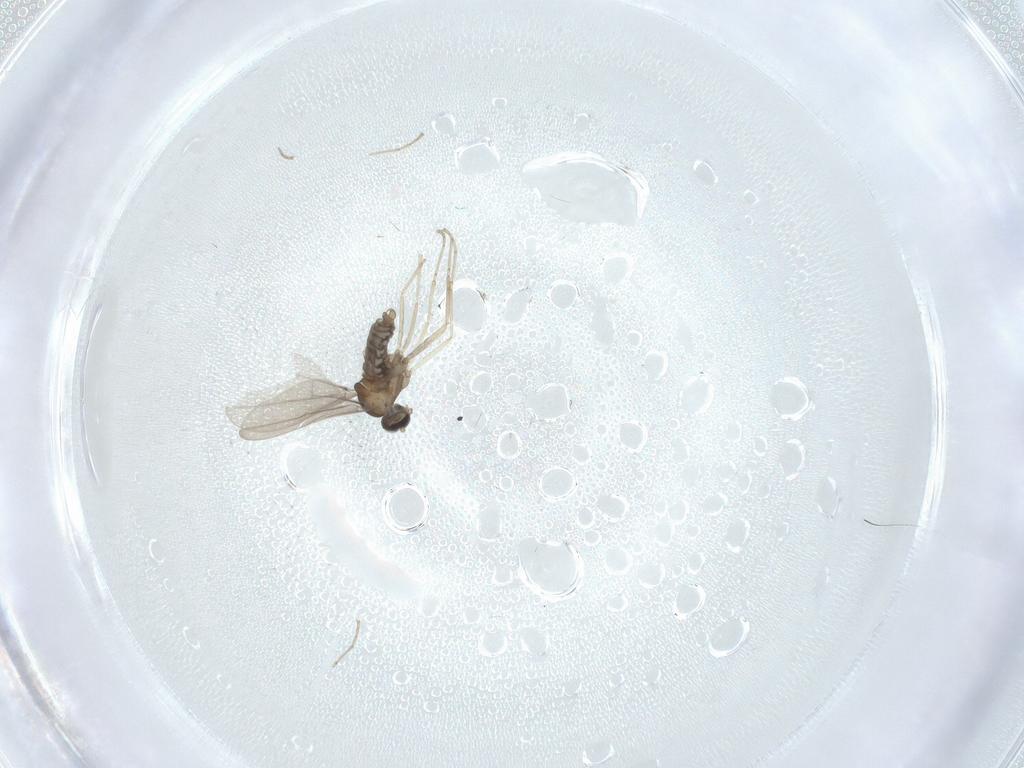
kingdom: Animalia
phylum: Arthropoda
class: Insecta
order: Diptera
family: Cecidomyiidae
